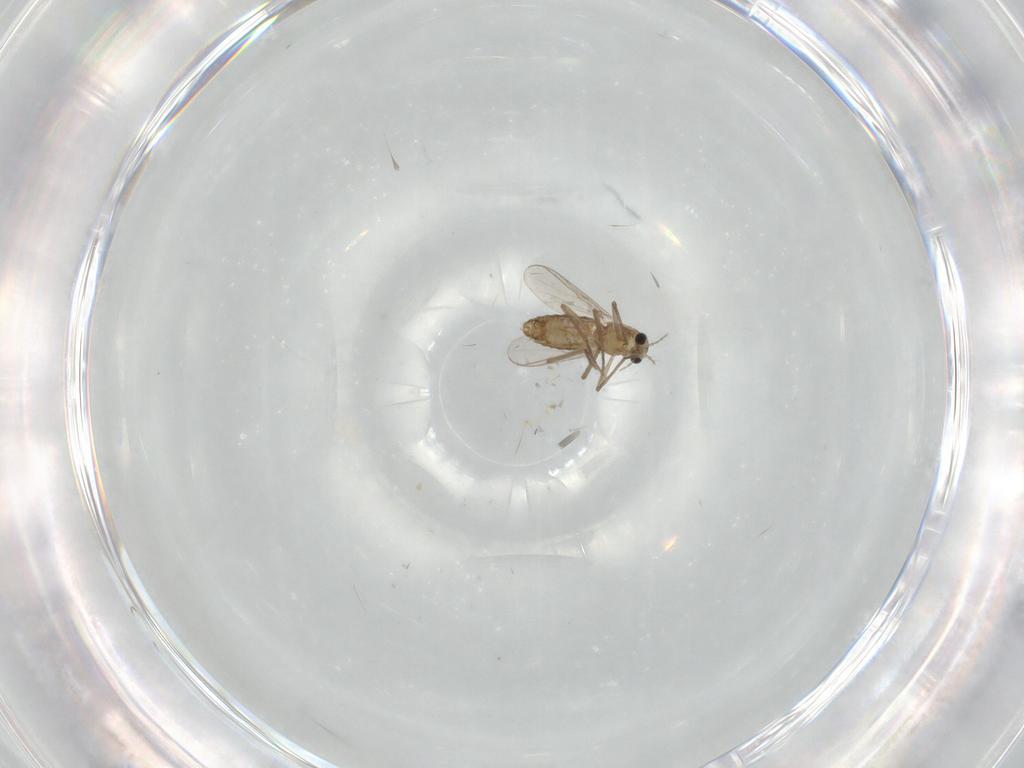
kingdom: Animalia
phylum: Arthropoda
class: Insecta
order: Diptera
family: Chironomidae
